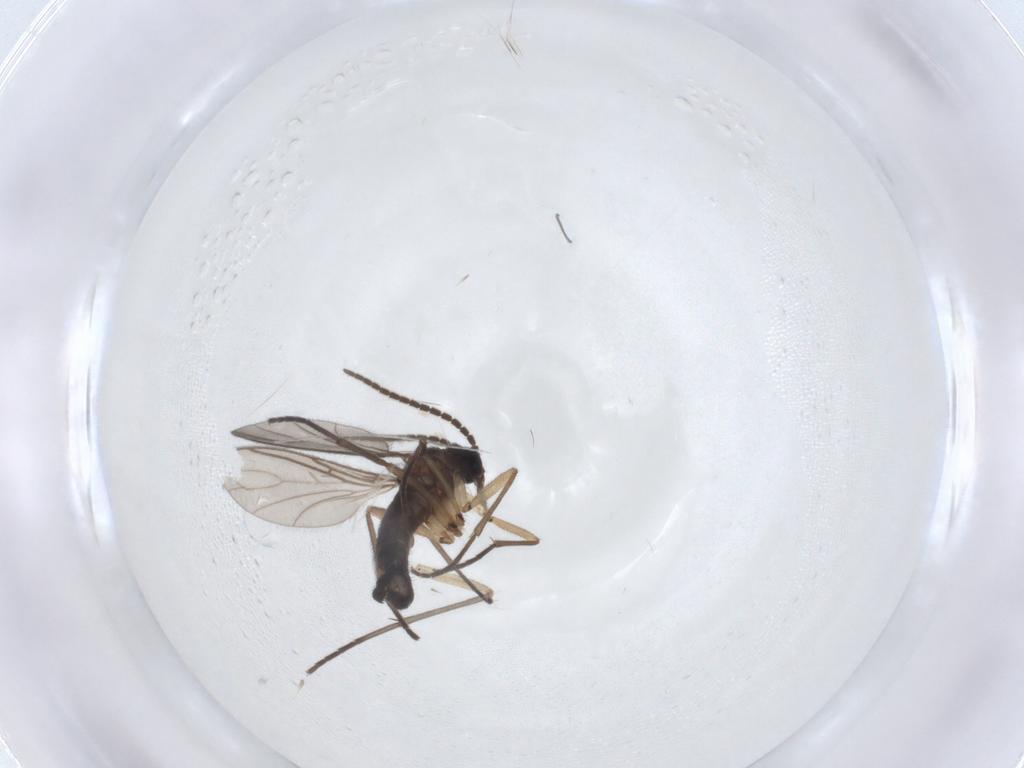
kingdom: Animalia
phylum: Arthropoda
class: Insecta
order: Diptera
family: Sciaridae
